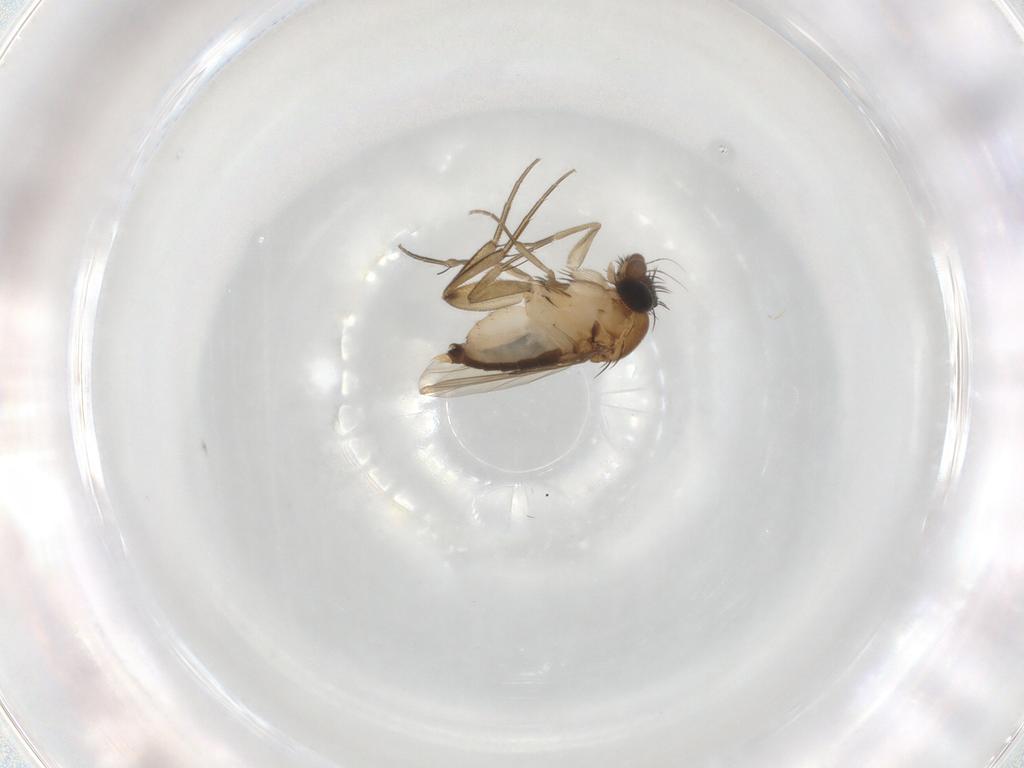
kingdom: Animalia
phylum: Arthropoda
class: Insecta
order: Diptera
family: Phoridae
